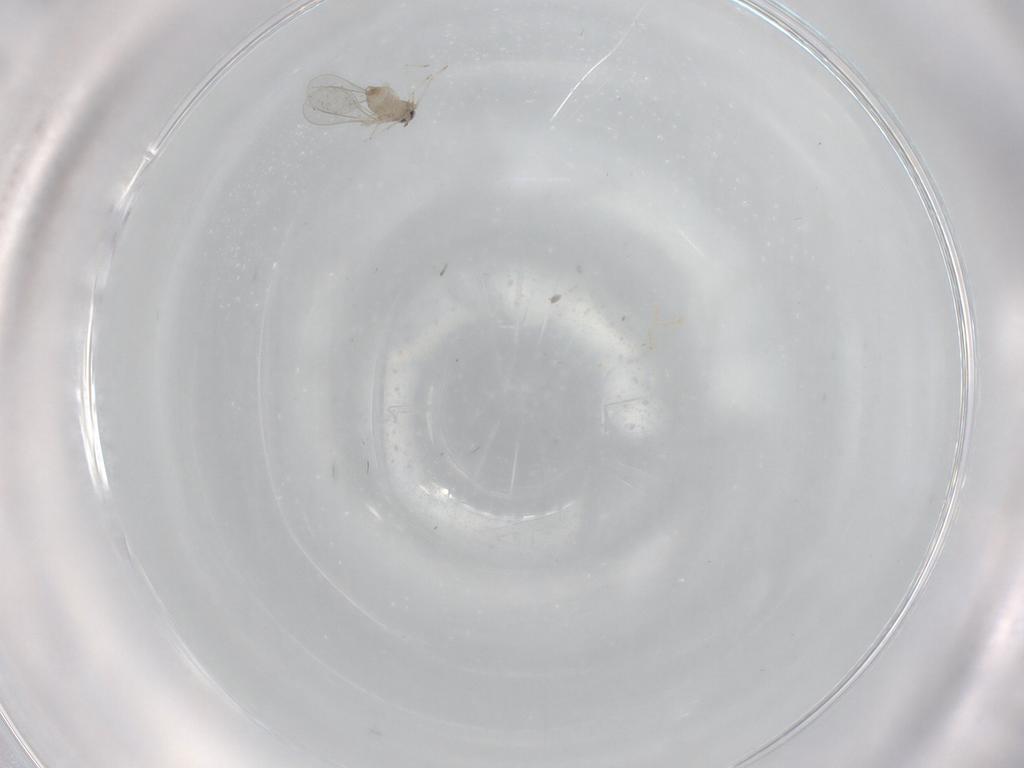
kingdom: Animalia
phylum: Arthropoda
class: Insecta
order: Diptera
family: Cecidomyiidae
